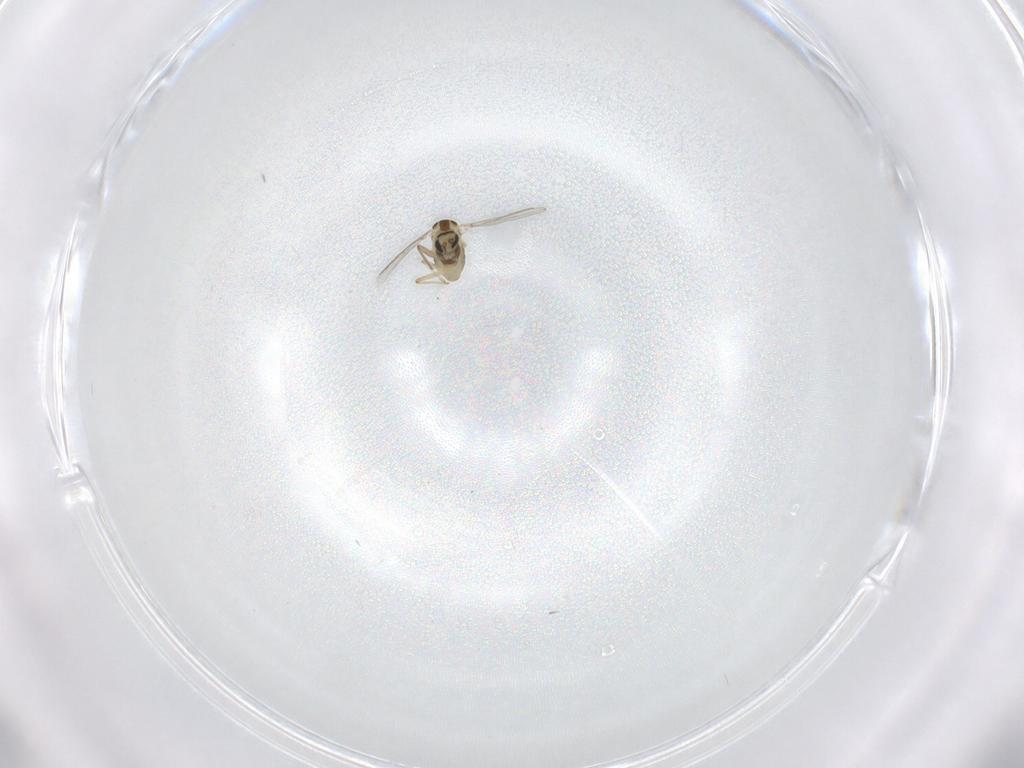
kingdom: Animalia
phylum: Arthropoda
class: Insecta
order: Diptera
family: Chironomidae
